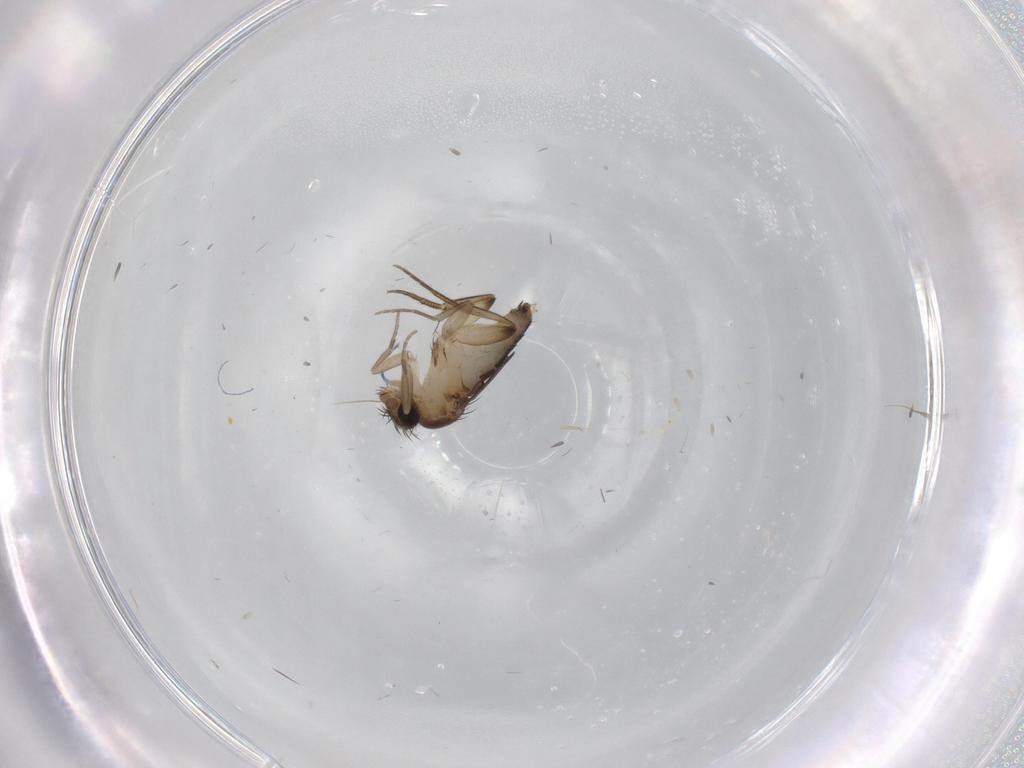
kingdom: Animalia
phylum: Arthropoda
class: Insecta
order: Diptera
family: Phoridae
